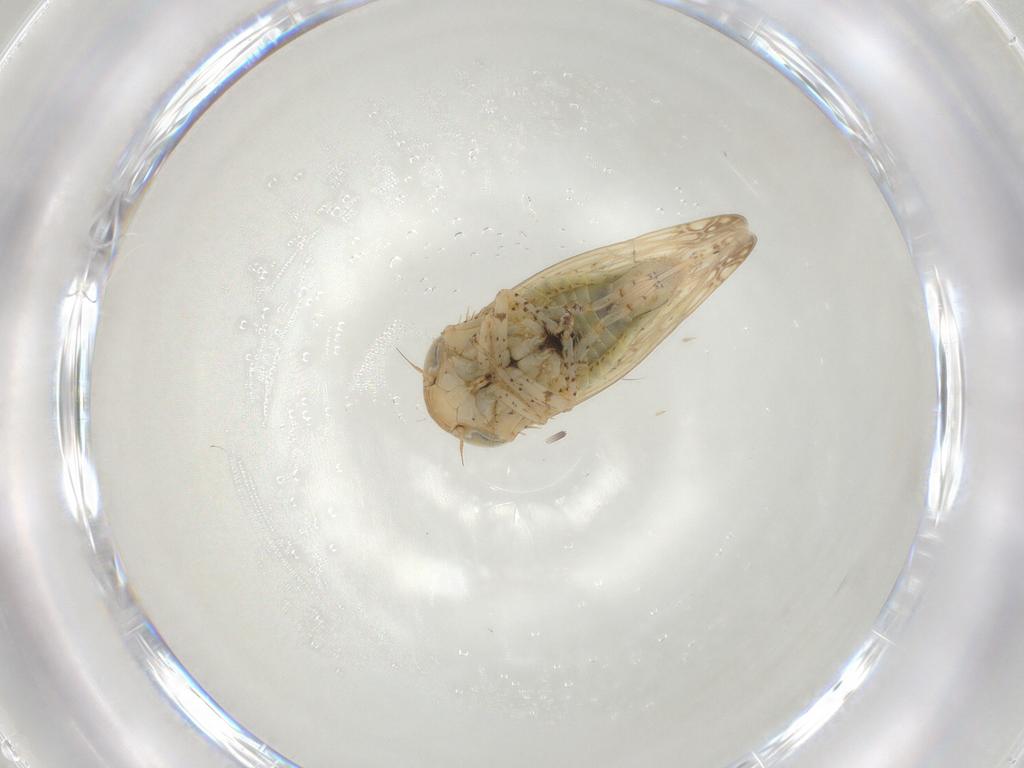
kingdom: Animalia
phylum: Arthropoda
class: Insecta
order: Hemiptera
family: Cicadellidae
